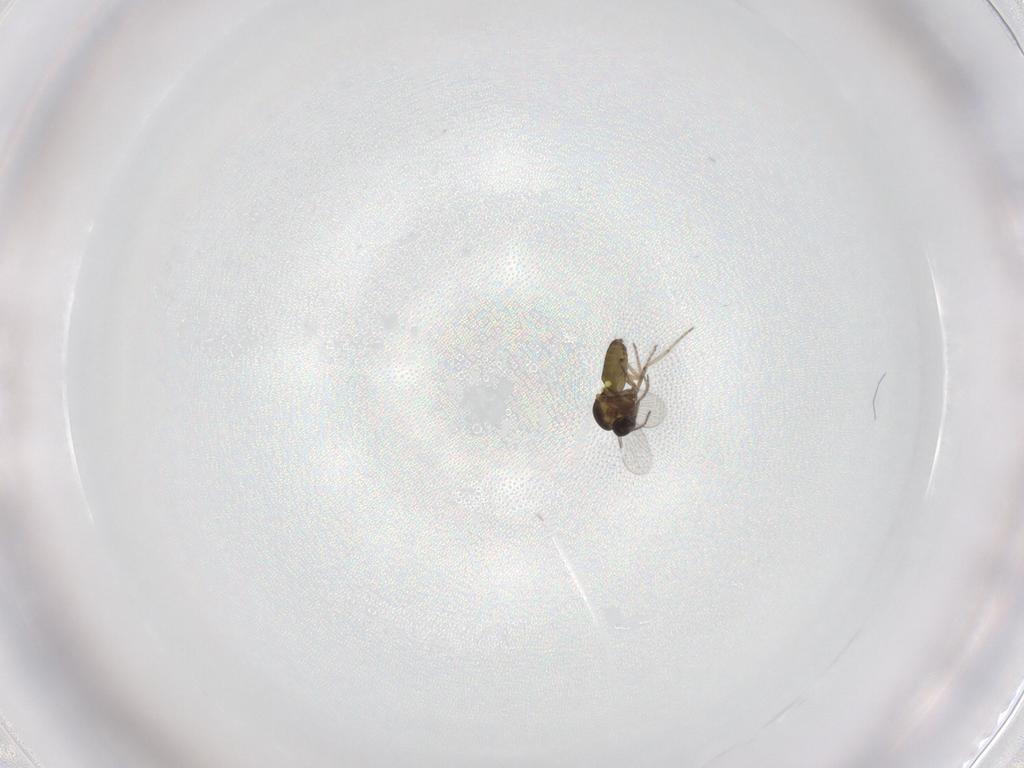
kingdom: Animalia
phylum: Arthropoda
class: Insecta
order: Diptera
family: Ceratopogonidae
